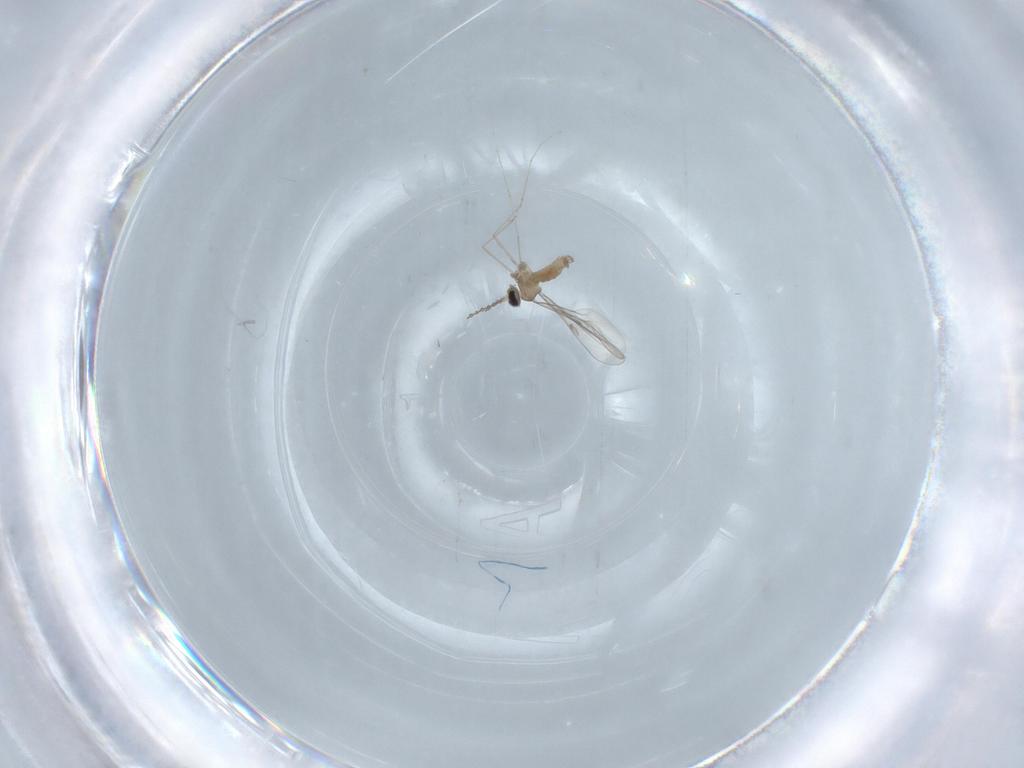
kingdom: Animalia
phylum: Arthropoda
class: Insecta
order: Diptera
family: Cecidomyiidae
